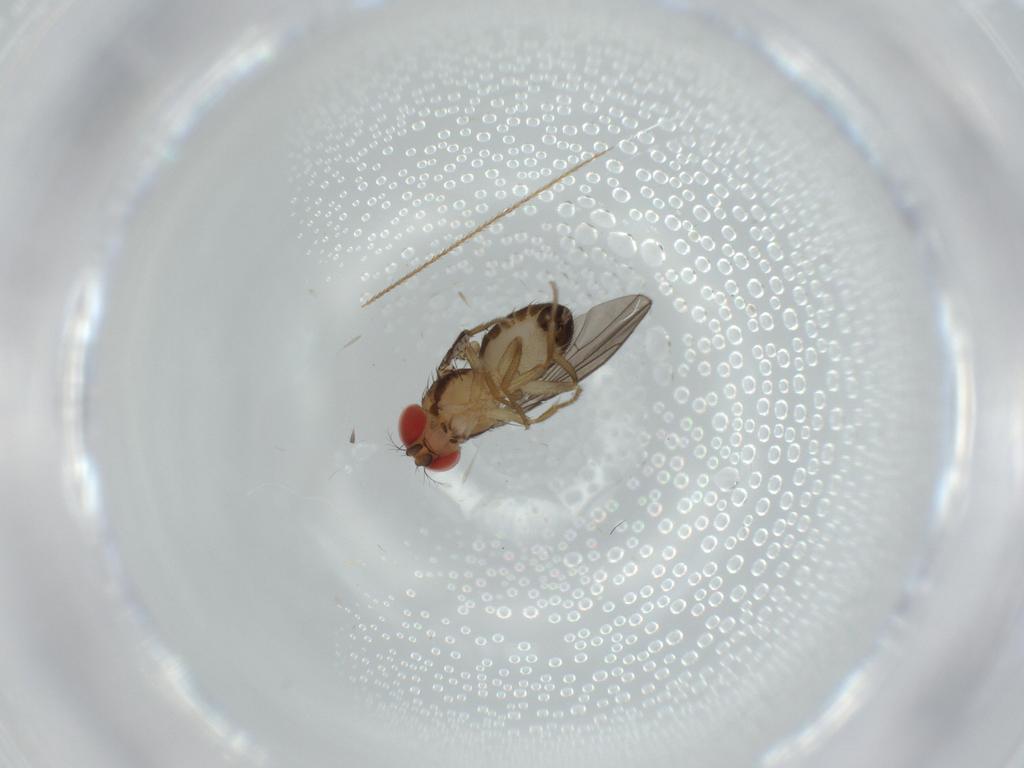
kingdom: Animalia
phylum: Arthropoda
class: Insecta
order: Diptera
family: Drosophilidae
